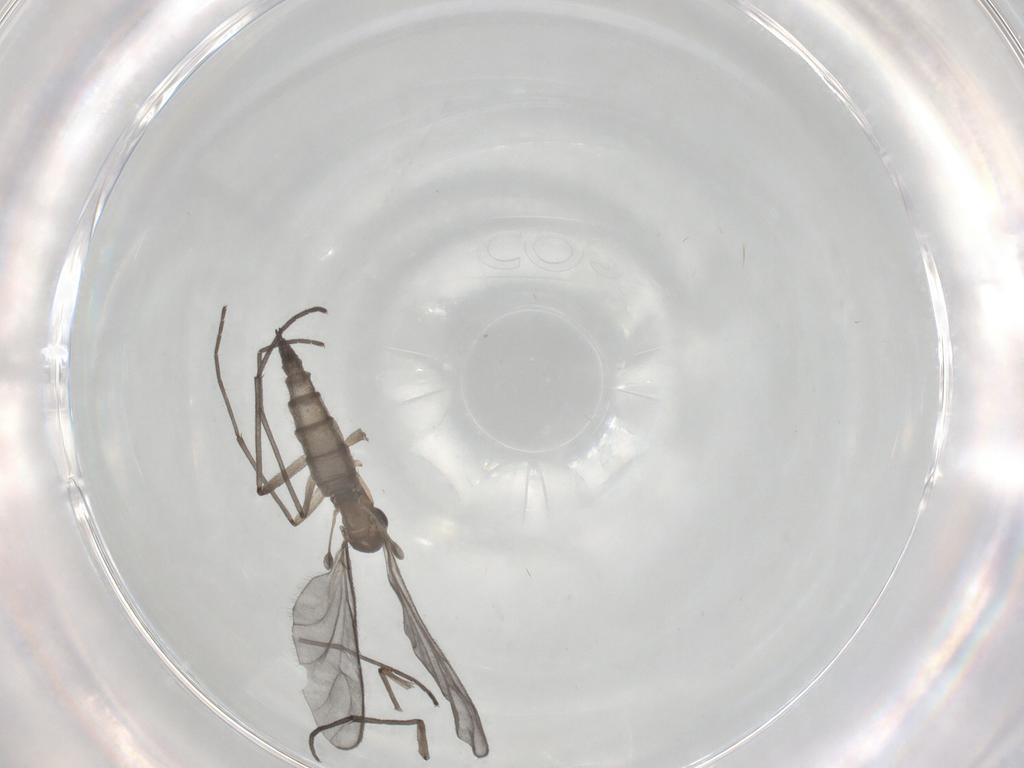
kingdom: Animalia
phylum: Arthropoda
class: Insecta
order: Diptera
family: Sciaridae
